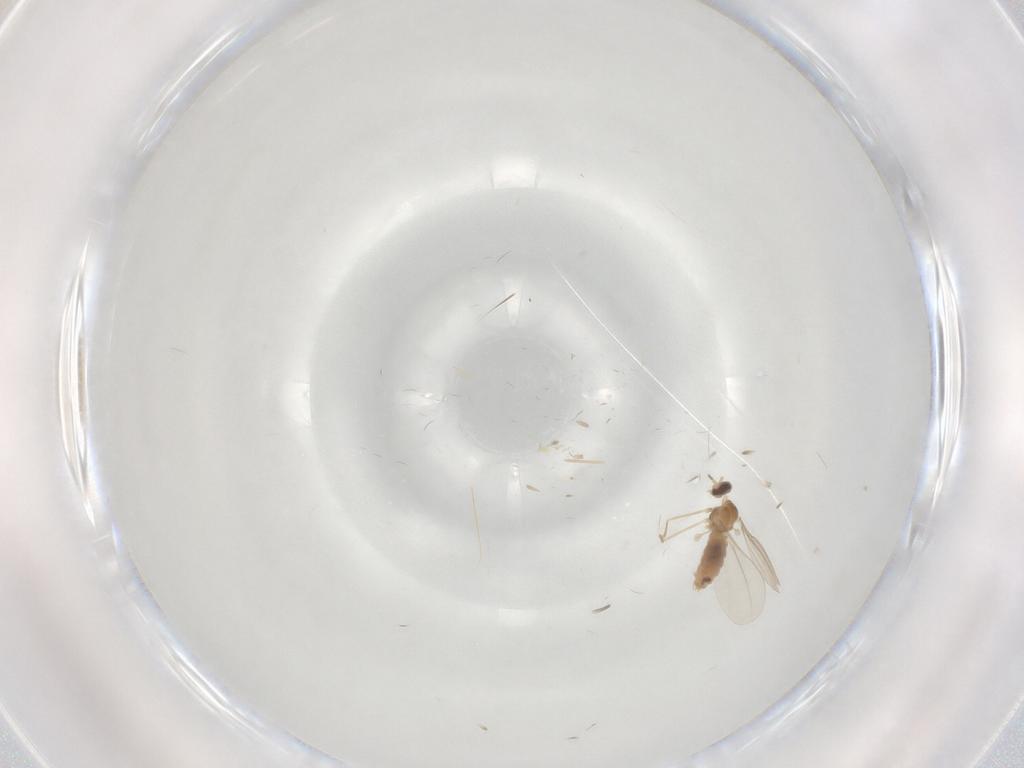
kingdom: Animalia
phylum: Arthropoda
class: Insecta
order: Diptera
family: Chironomidae
